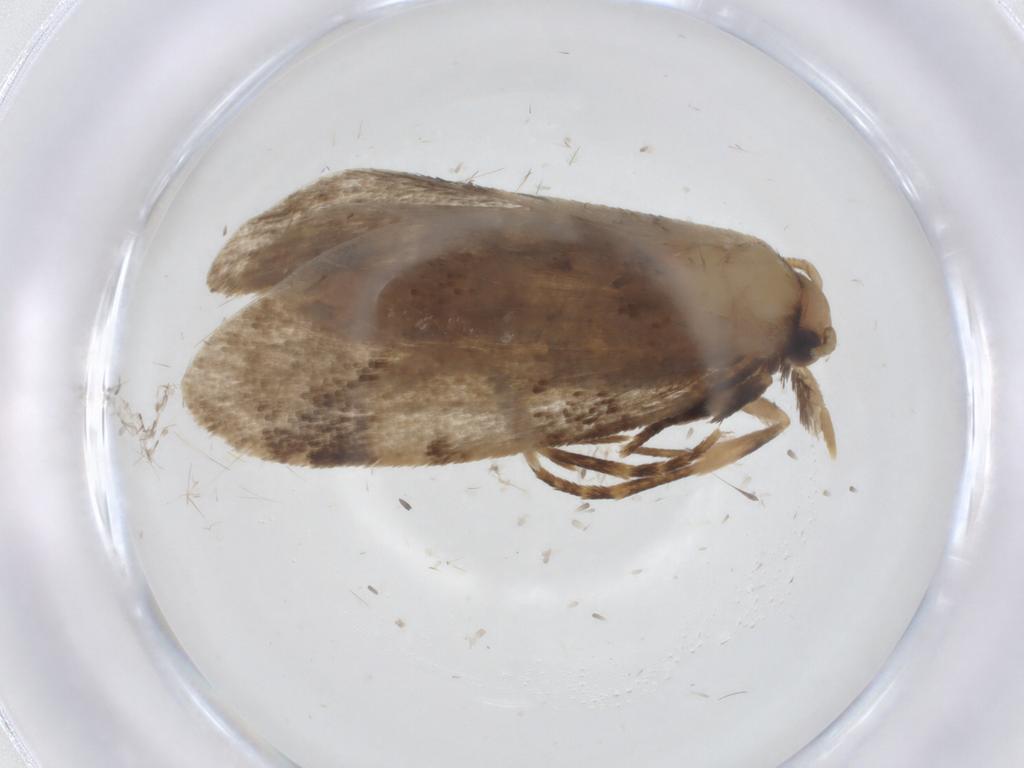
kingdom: Animalia
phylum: Arthropoda
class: Insecta
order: Lepidoptera
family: Tineidae
